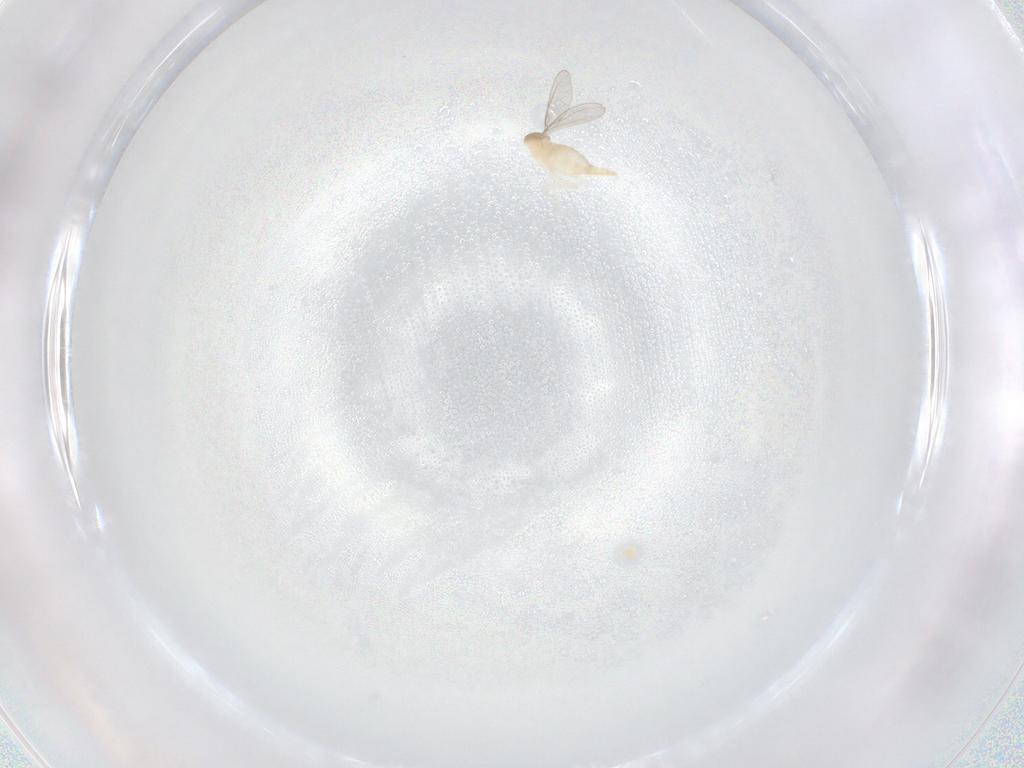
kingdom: Animalia
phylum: Arthropoda
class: Insecta
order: Diptera
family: Cecidomyiidae
